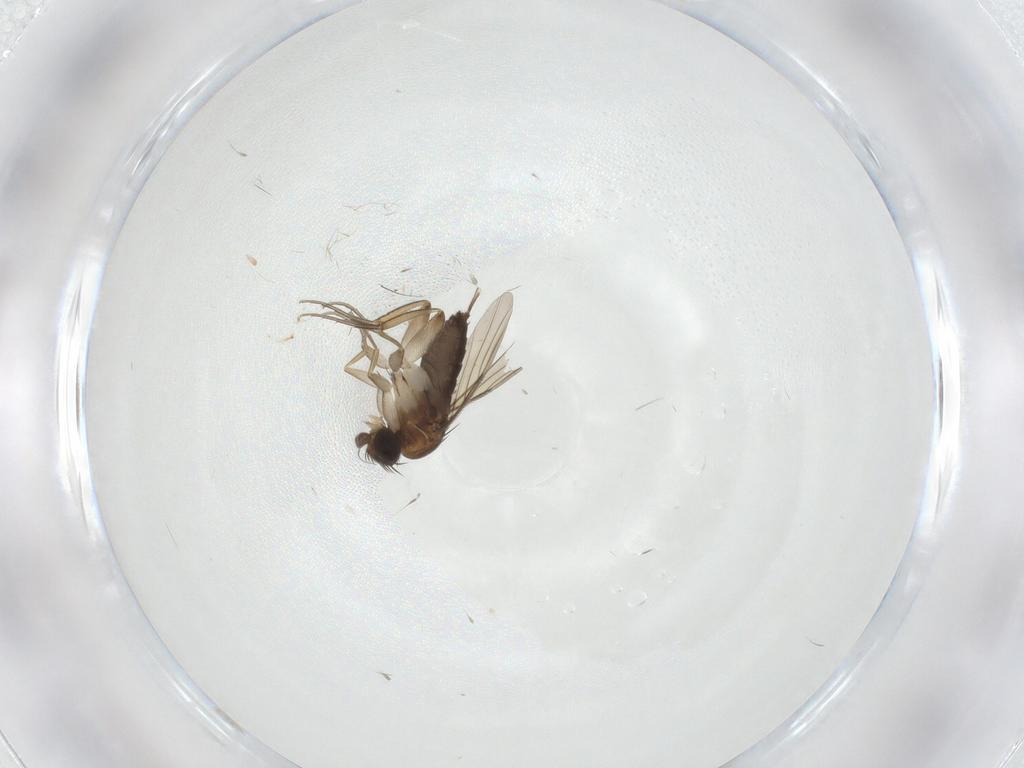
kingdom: Animalia
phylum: Arthropoda
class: Insecta
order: Diptera
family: Phoridae
